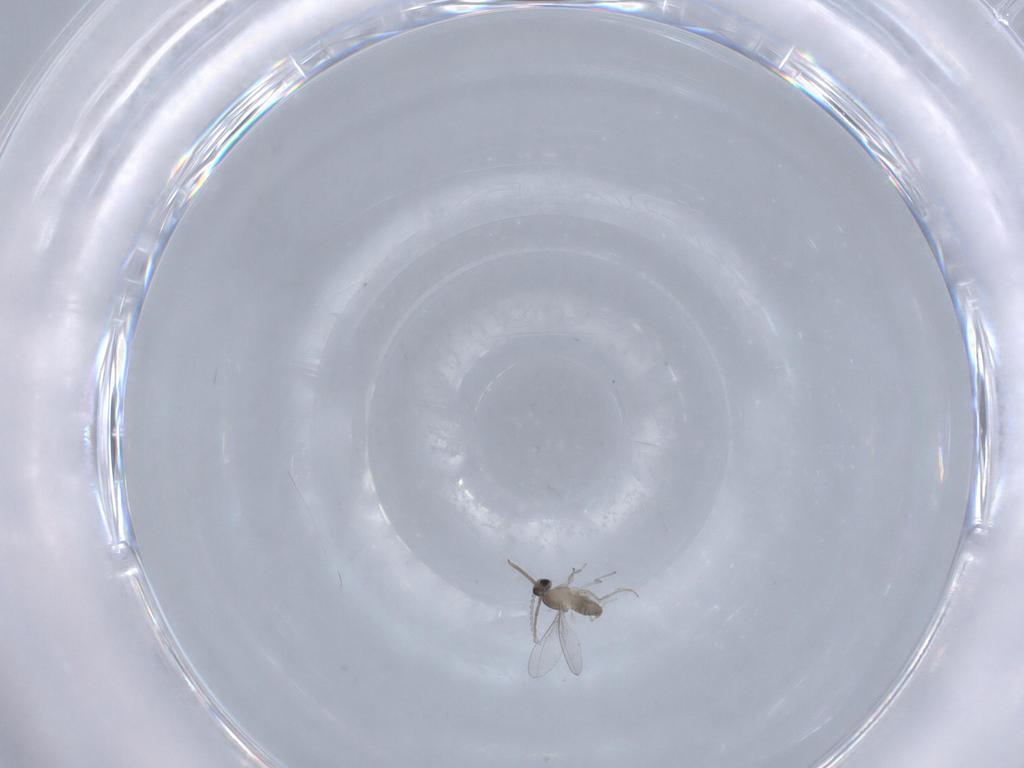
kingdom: Animalia
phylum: Arthropoda
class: Insecta
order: Diptera
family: Cecidomyiidae
